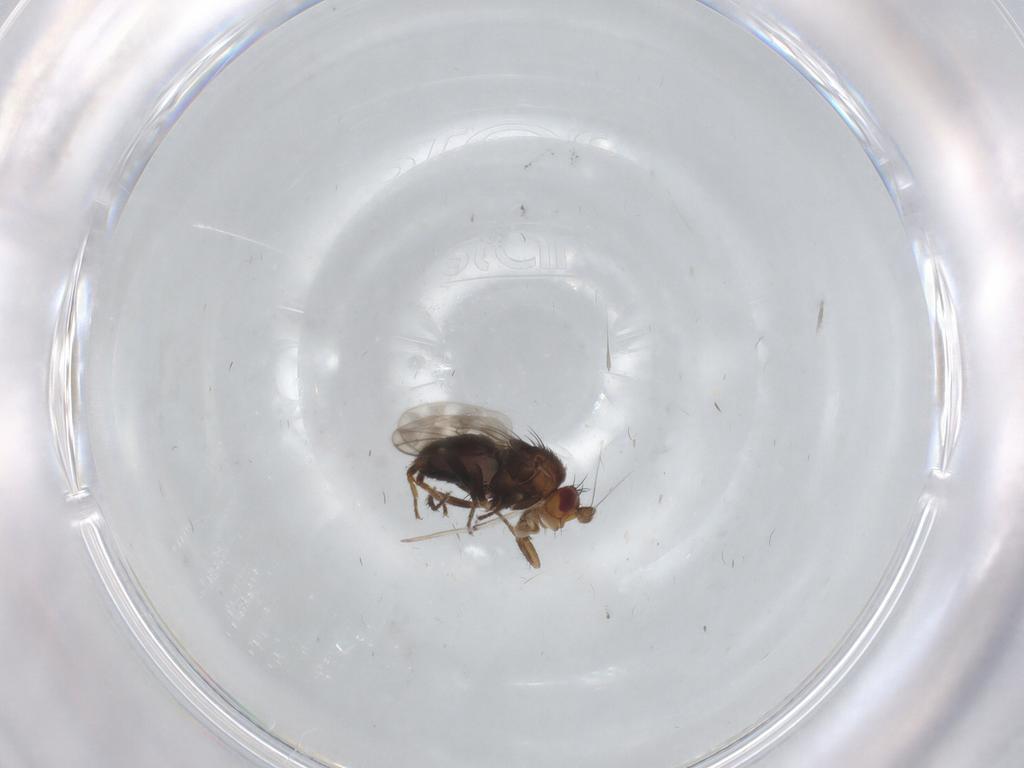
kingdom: Animalia
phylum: Arthropoda
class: Insecta
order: Diptera
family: Sphaeroceridae
